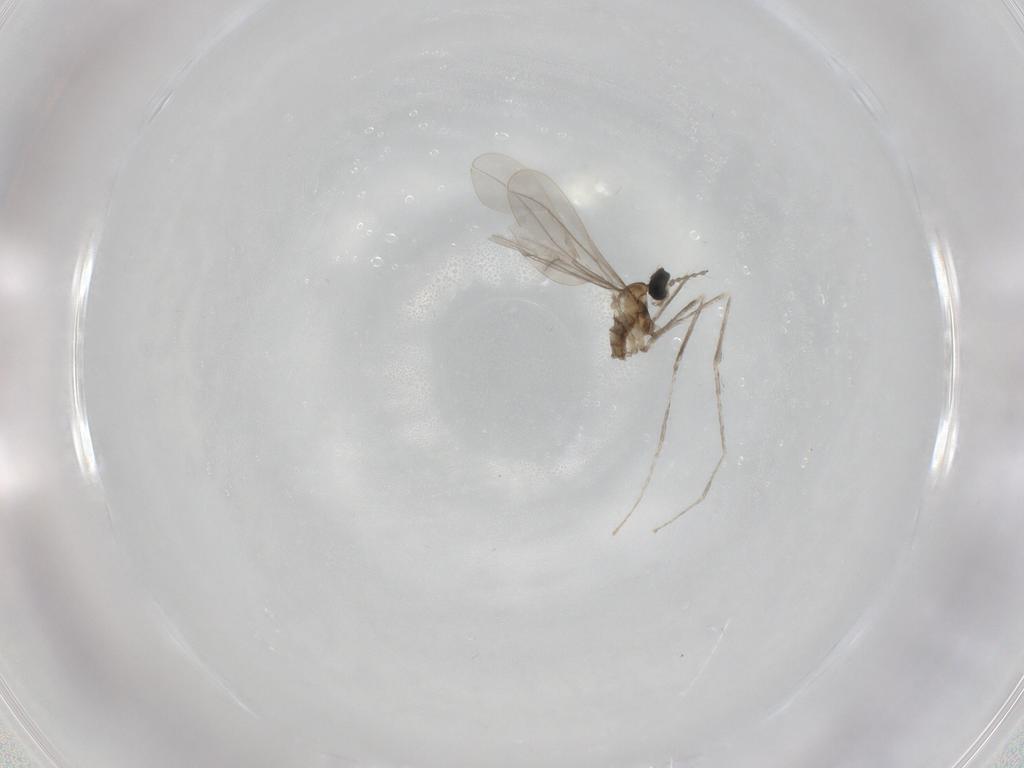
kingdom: Animalia
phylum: Arthropoda
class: Insecta
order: Diptera
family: Cecidomyiidae
